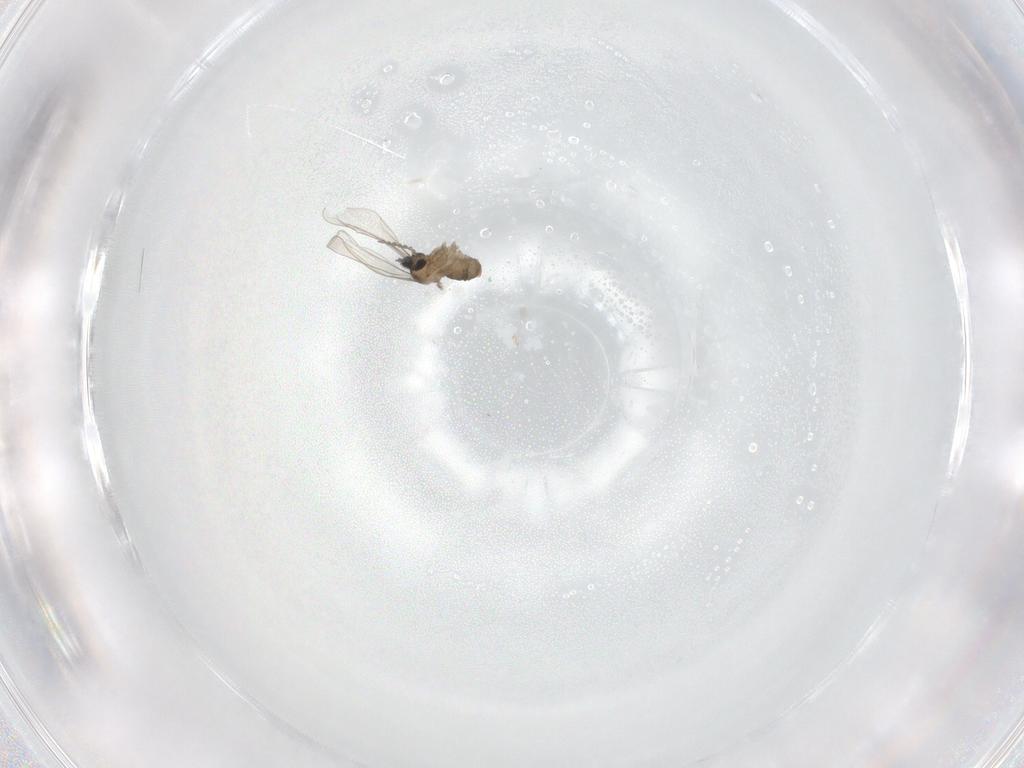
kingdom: Animalia
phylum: Arthropoda
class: Insecta
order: Diptera
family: Cecidomyiidae
